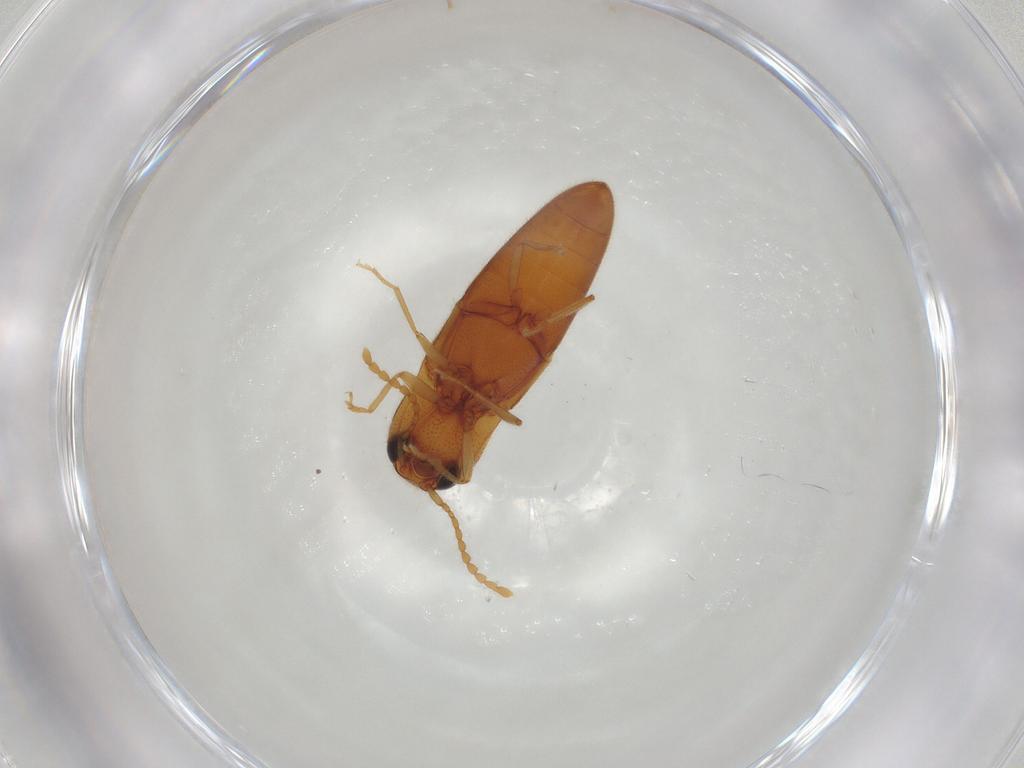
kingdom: Animalia
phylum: Arthropoda
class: Insecta
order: Coleoptera
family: Elateridae
